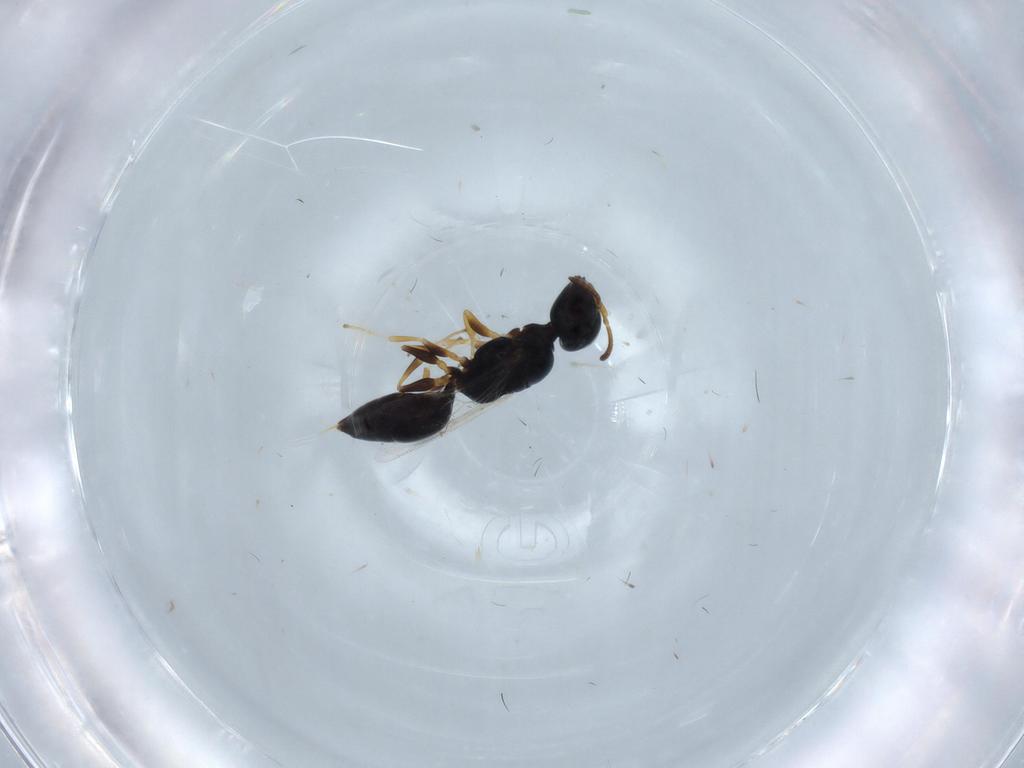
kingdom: Animalia
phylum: Arthropoda
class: Insecta
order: Hymenoptera
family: Pemphredonidae
